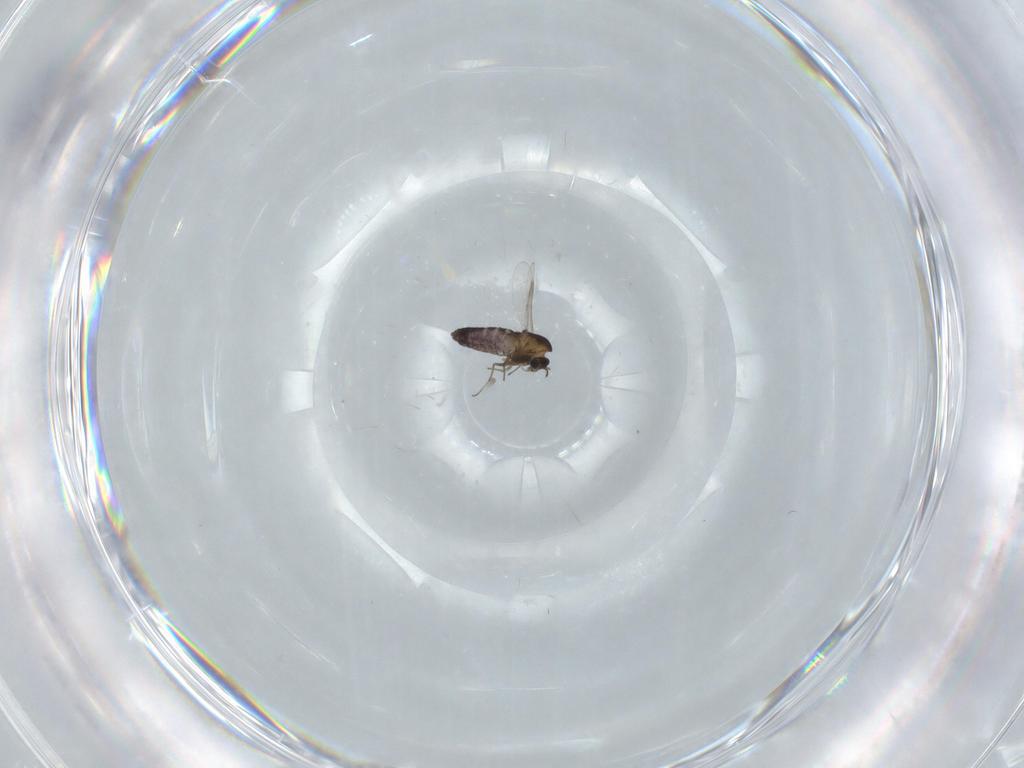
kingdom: Animalia
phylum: Arthropoda
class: Insecta
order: Diptera
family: Chironomidae
